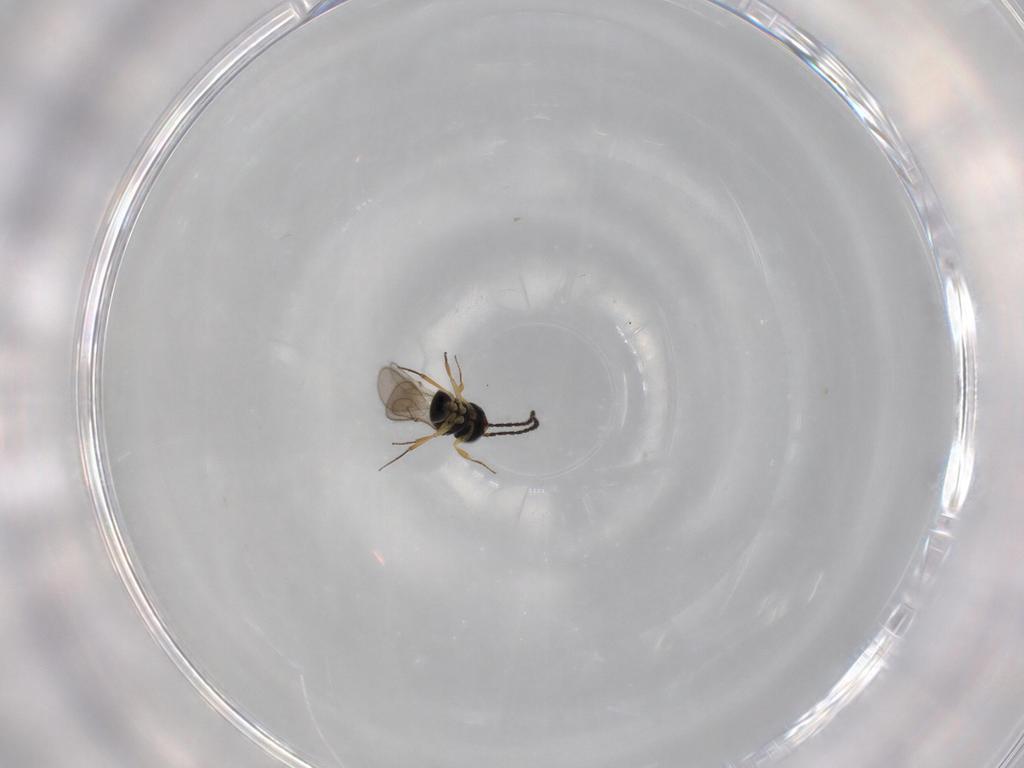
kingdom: Animalia
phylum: Arthropoda
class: Insecta
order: Hymenoptera
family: Scelionidae
